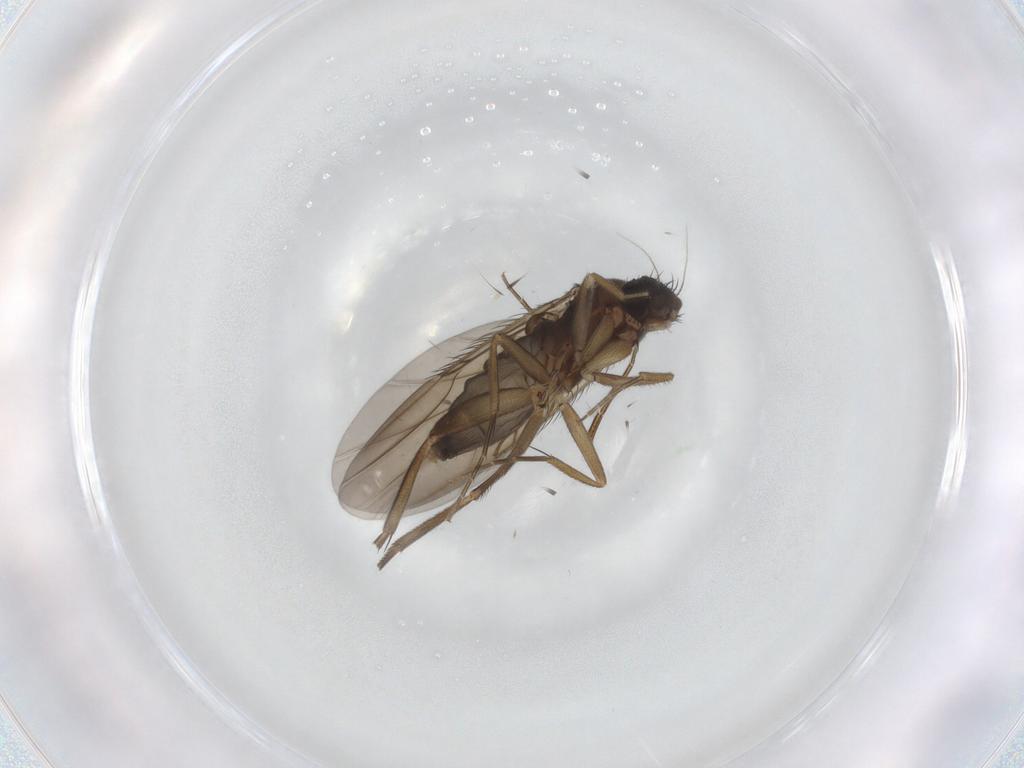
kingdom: Animalia
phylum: Arthropoda
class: Insecta
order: Diptera
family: Phoridae
